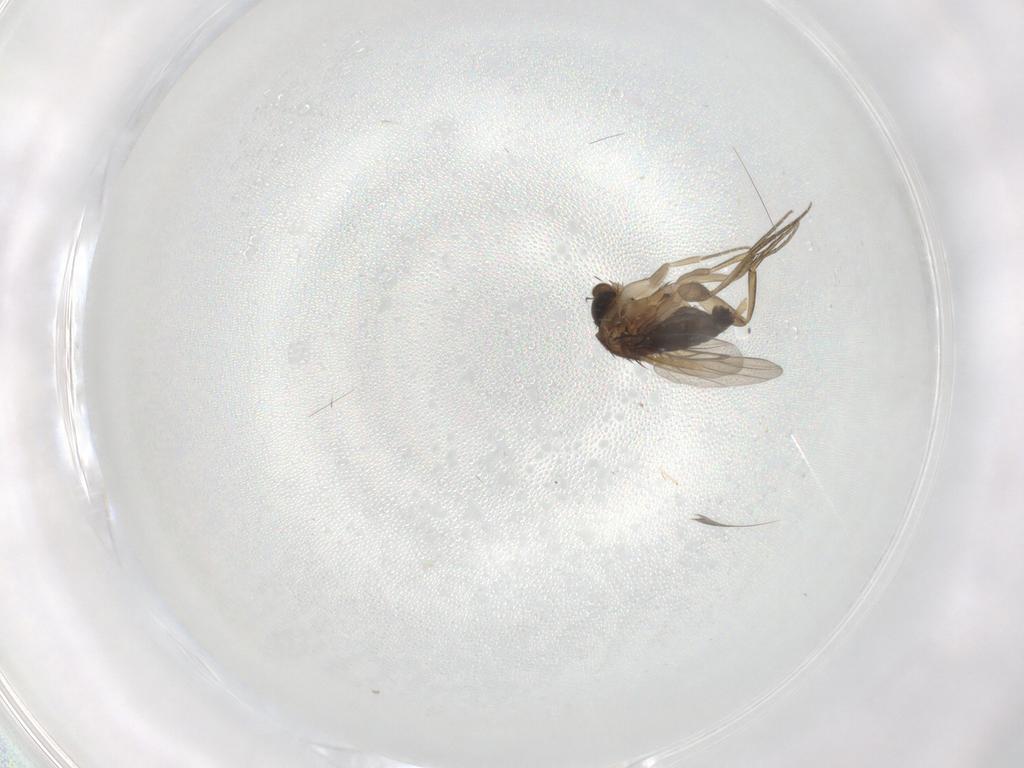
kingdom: Animalia
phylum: Arthropoda
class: Insecta
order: Diptera
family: Phoridae
